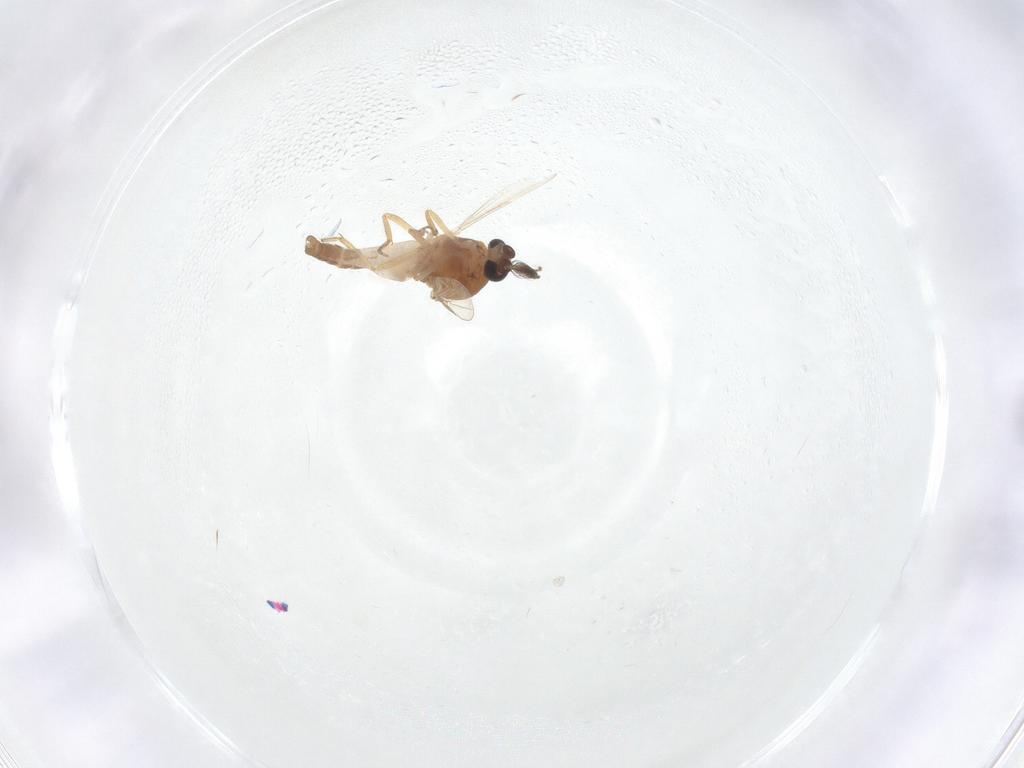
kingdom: Animalia
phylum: Arthropoda
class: Insecta
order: Diptera
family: Ceratopogonidae
